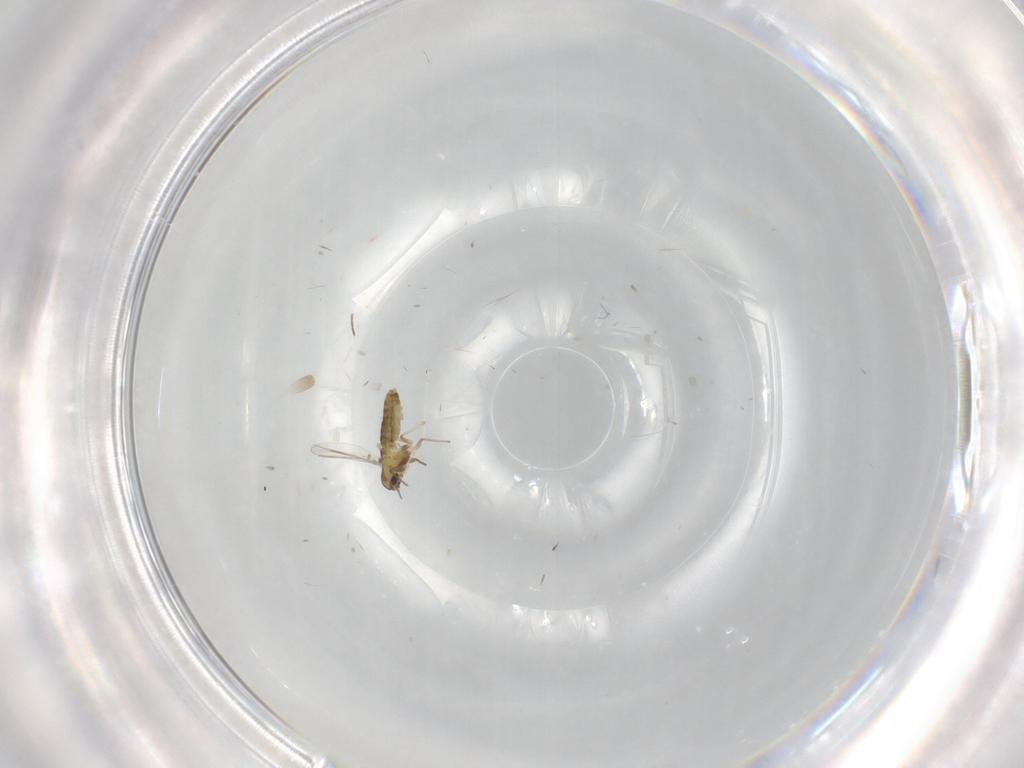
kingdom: Animalia
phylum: Arthropoda
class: Insecta
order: Diptera
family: Chironomidae
